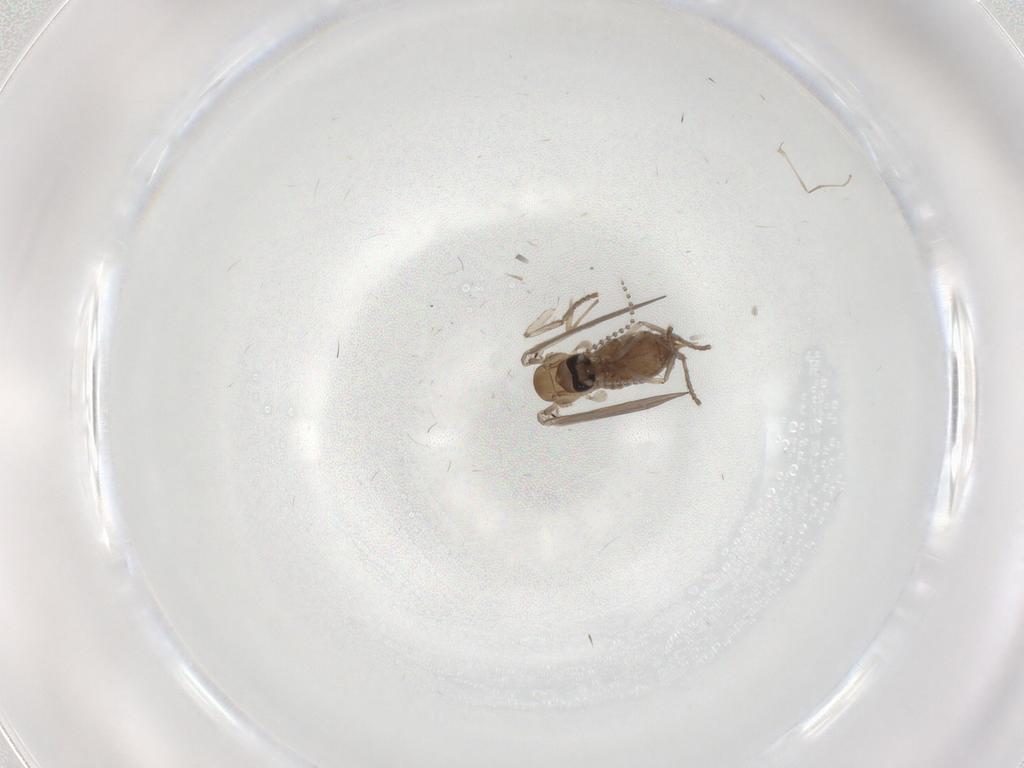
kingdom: Animalia
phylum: Arthropoda
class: Insecta
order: Diptera
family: Psychodidae
